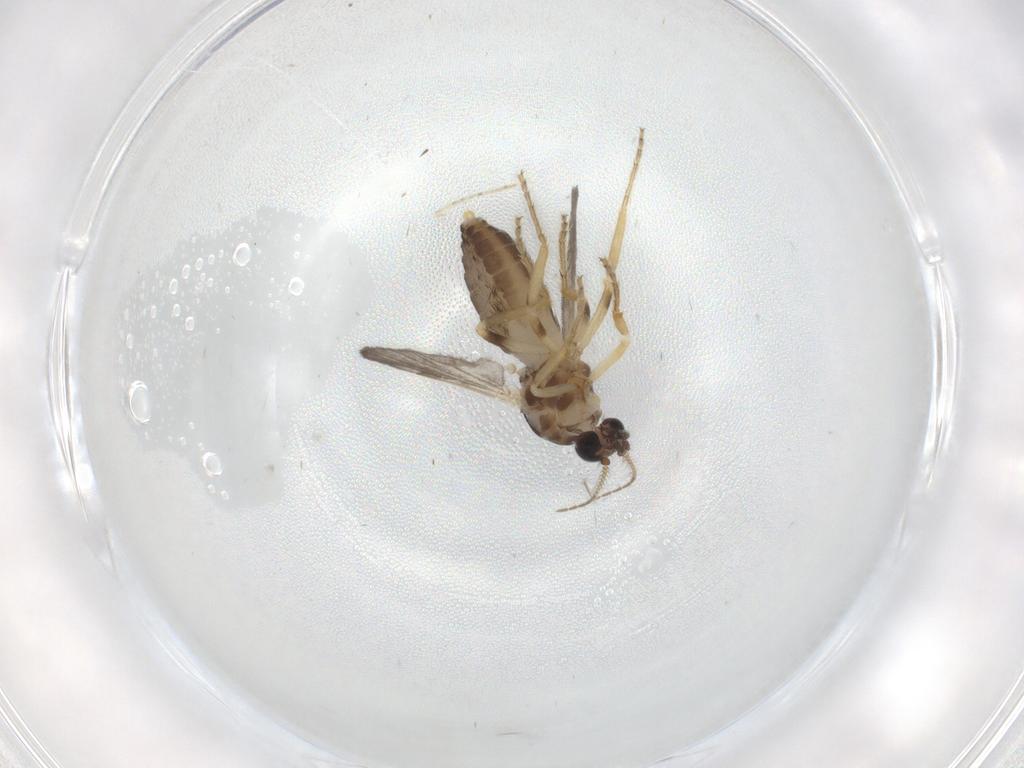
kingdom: Animalia
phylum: Arthropoda
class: Insecta
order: Diptera
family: Ceratopogonidae
